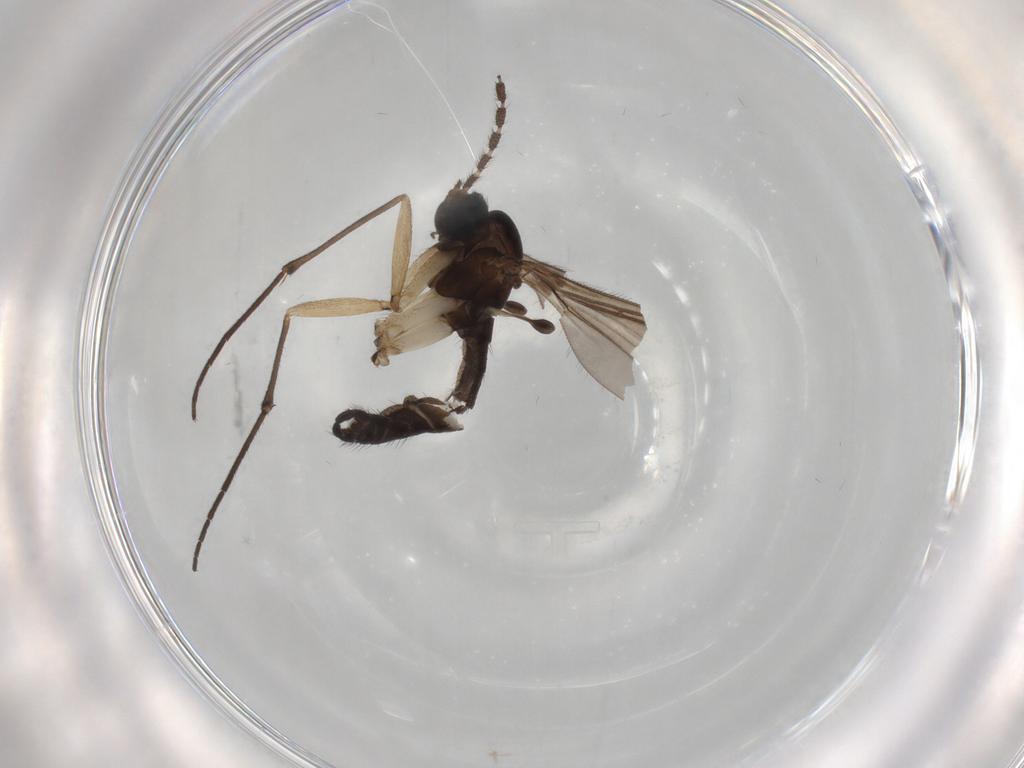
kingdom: Animalia
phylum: Arthropoda
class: Insecta
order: Diptera
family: Sciaridae
